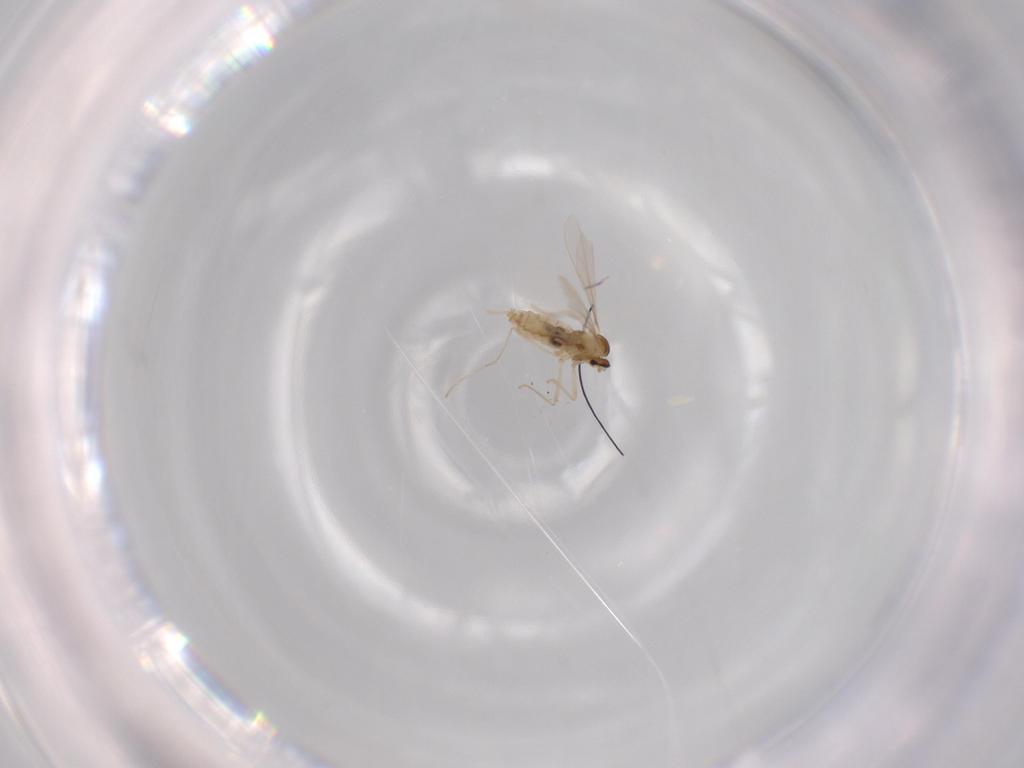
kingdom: Animalia
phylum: Arthropoda
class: Insecta
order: Diptera
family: Cecidomyiidae
